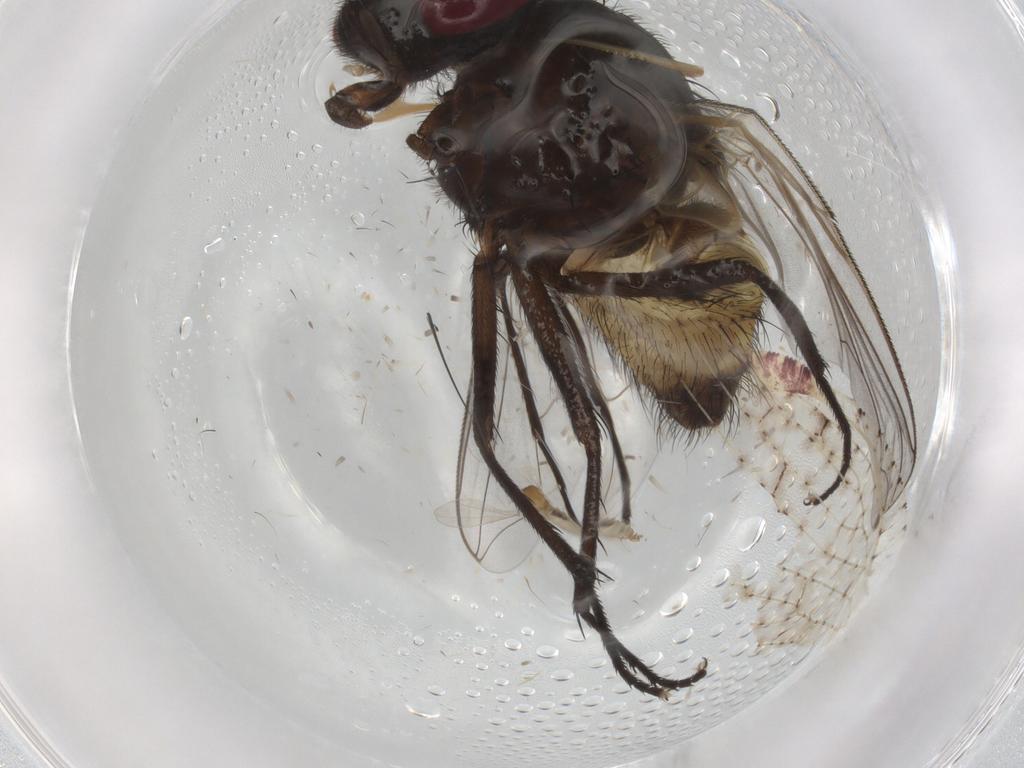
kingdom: Animalia
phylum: Arthropoda
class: Insecta
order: Diptera
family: Muscidae
